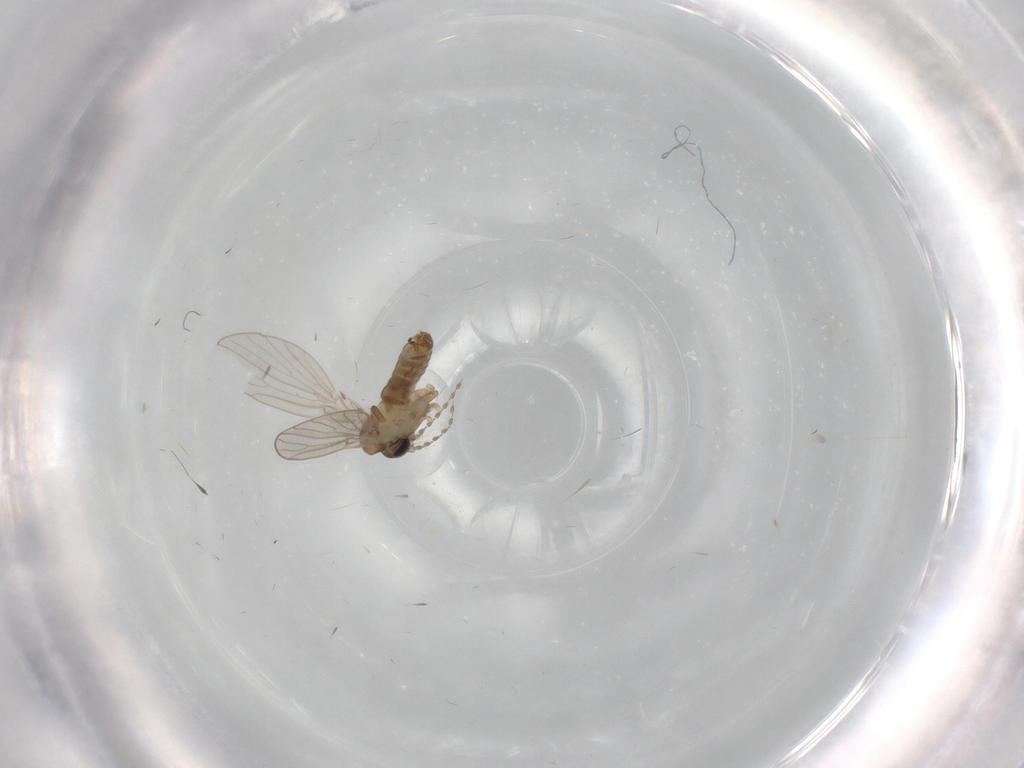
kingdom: Animalia
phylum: Arthropoda
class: Insecta
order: Diptera
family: Psychodidae
